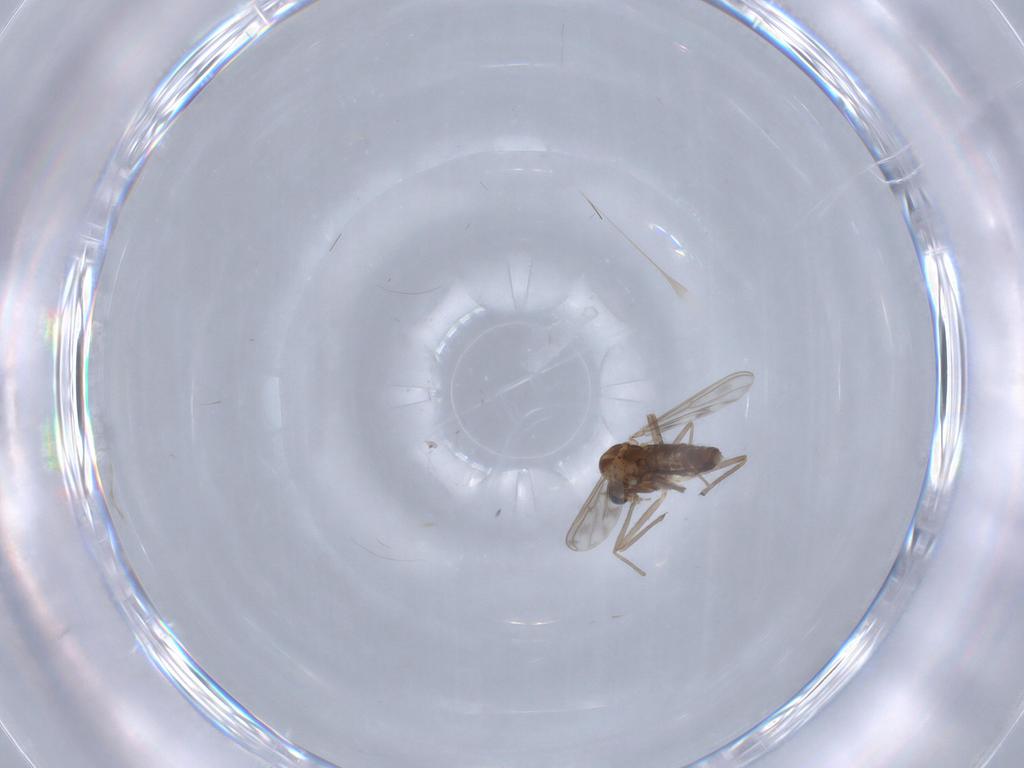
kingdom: Animalia
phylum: Arthropoda
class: Insecta
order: Diptera
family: Chironomidae
